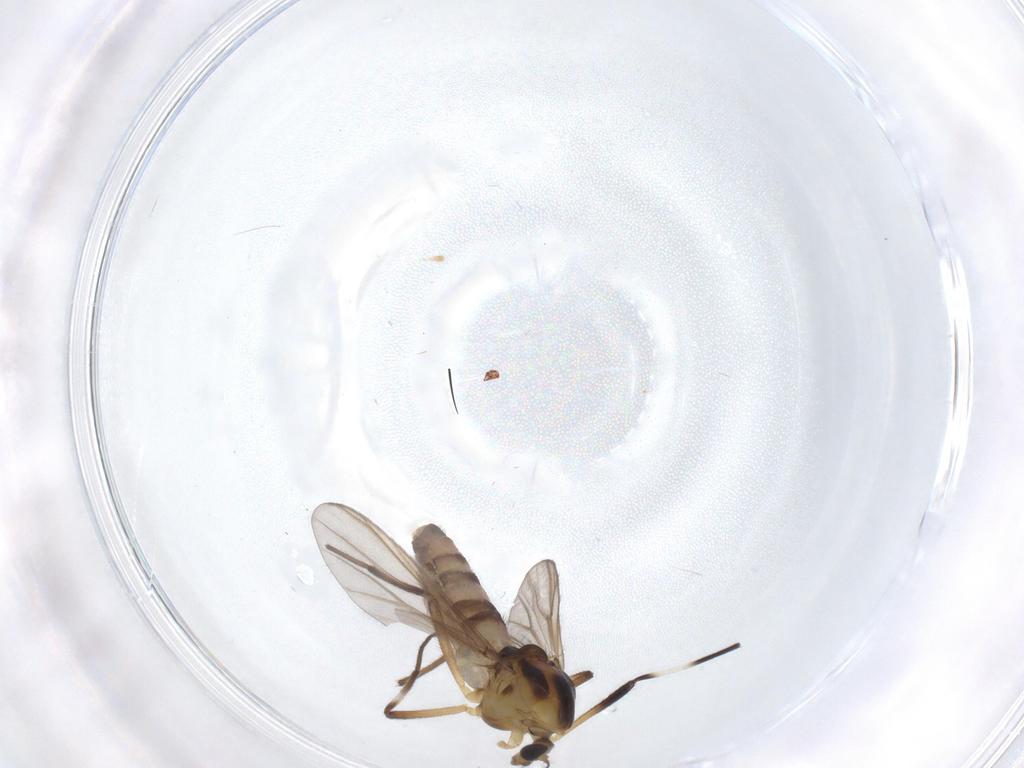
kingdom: Animalia
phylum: Arthropoda
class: Insecta
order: Diptera
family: Chironomidae
